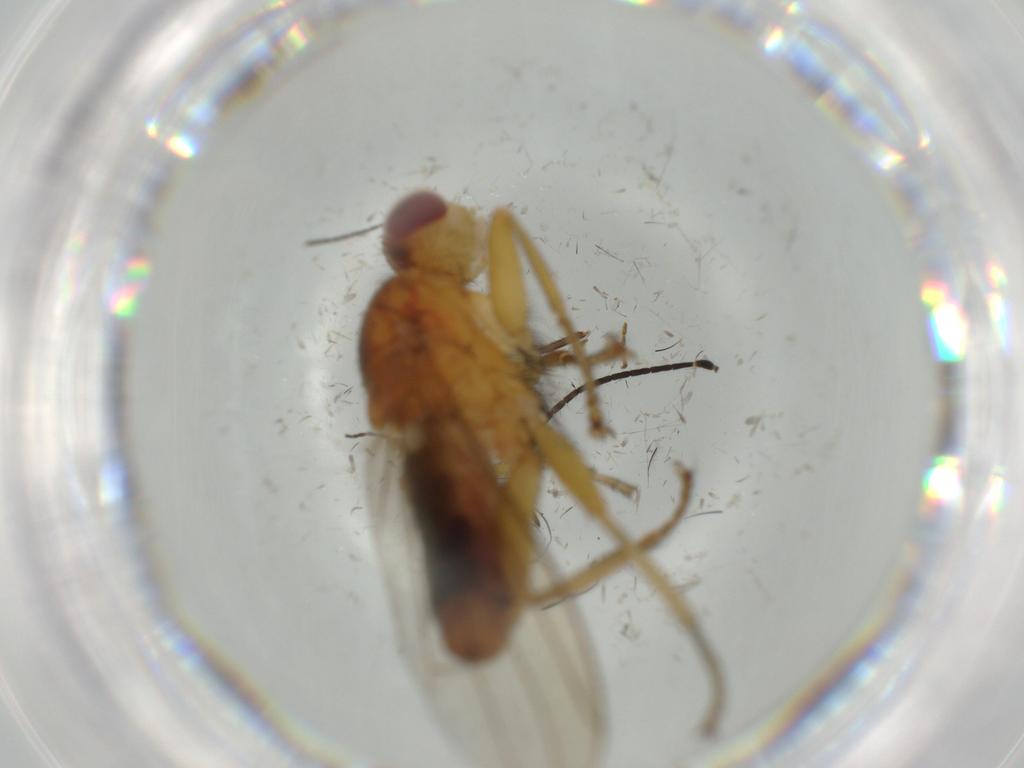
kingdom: Animalia
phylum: Arthropoda
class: Insecta
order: Diptera
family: Heleomyzidae
